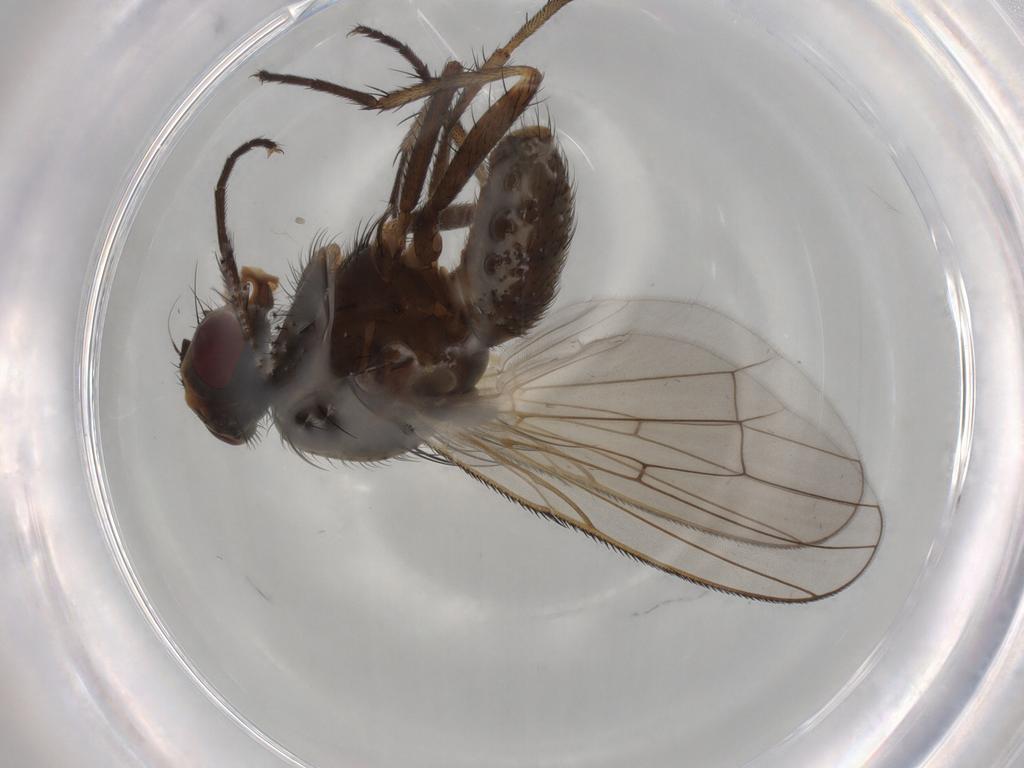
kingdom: Animalia
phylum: Arthropoda
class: Insecta
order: Diptera
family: Anthomyiidae
